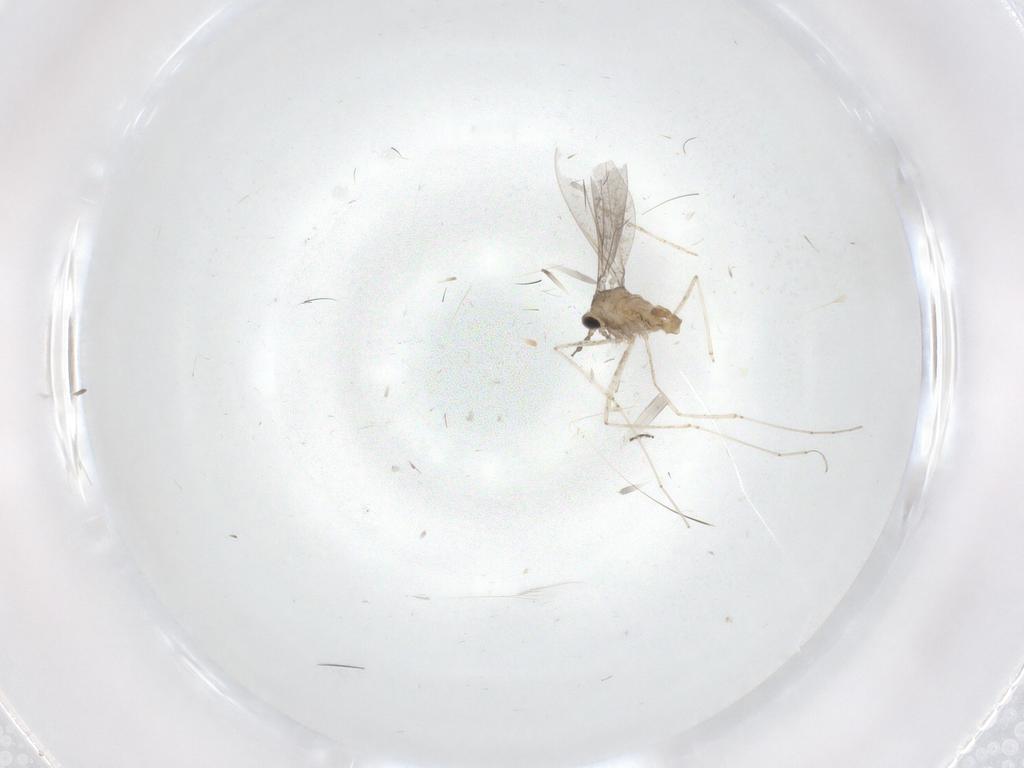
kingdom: Animalia
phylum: Arthropoda
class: Insecta
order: Diptera
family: Cecidomyiidae
